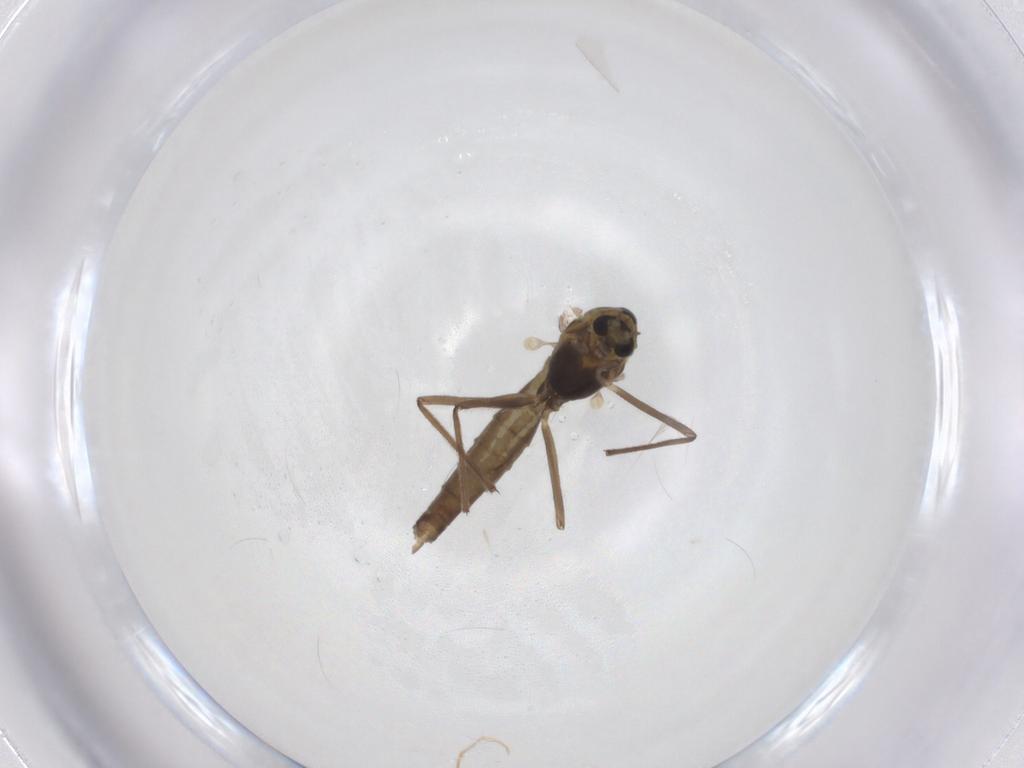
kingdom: Animalia
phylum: Arthropoda
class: Insecta
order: Diptera
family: Chironomidae
